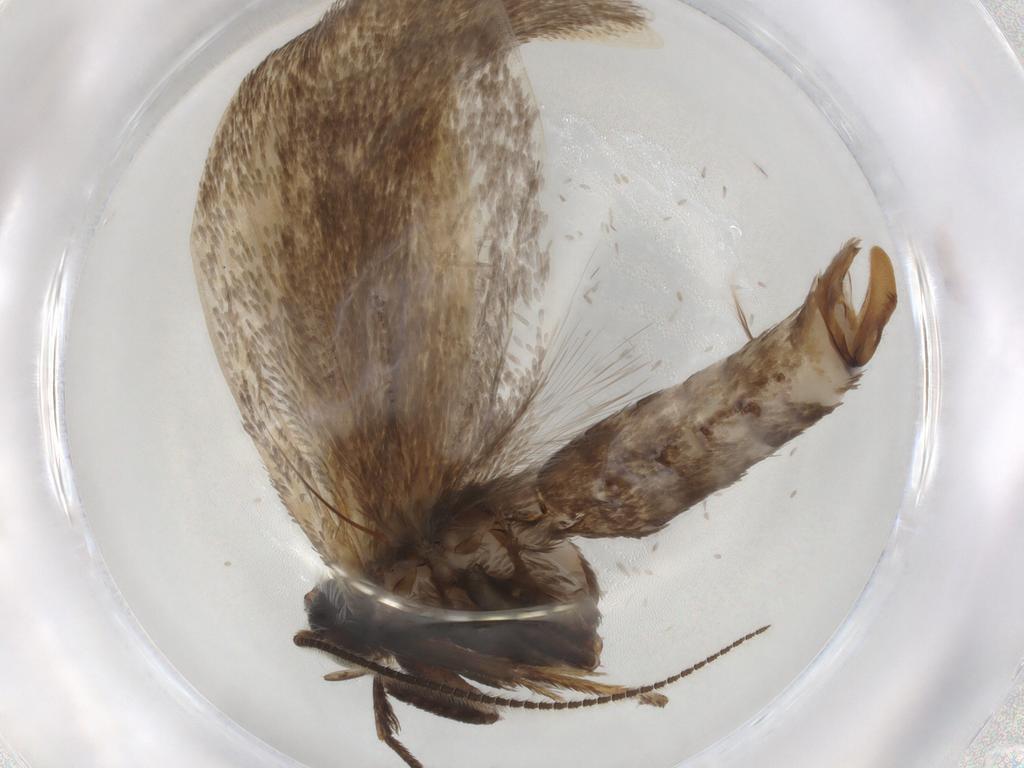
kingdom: Animalia
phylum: Arthropoda
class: Insecta
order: Lepidoptera
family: Crambidae
